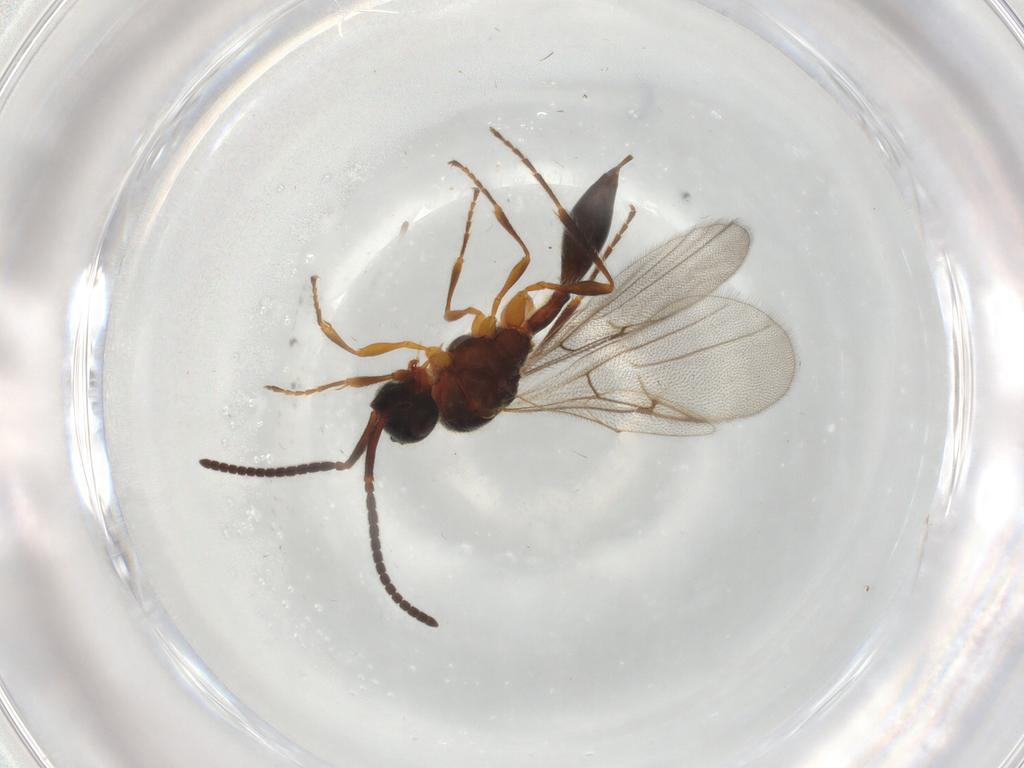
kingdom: Animalia
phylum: Arthropoda
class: Insecta
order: Hymenoptera
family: Diapriidae
